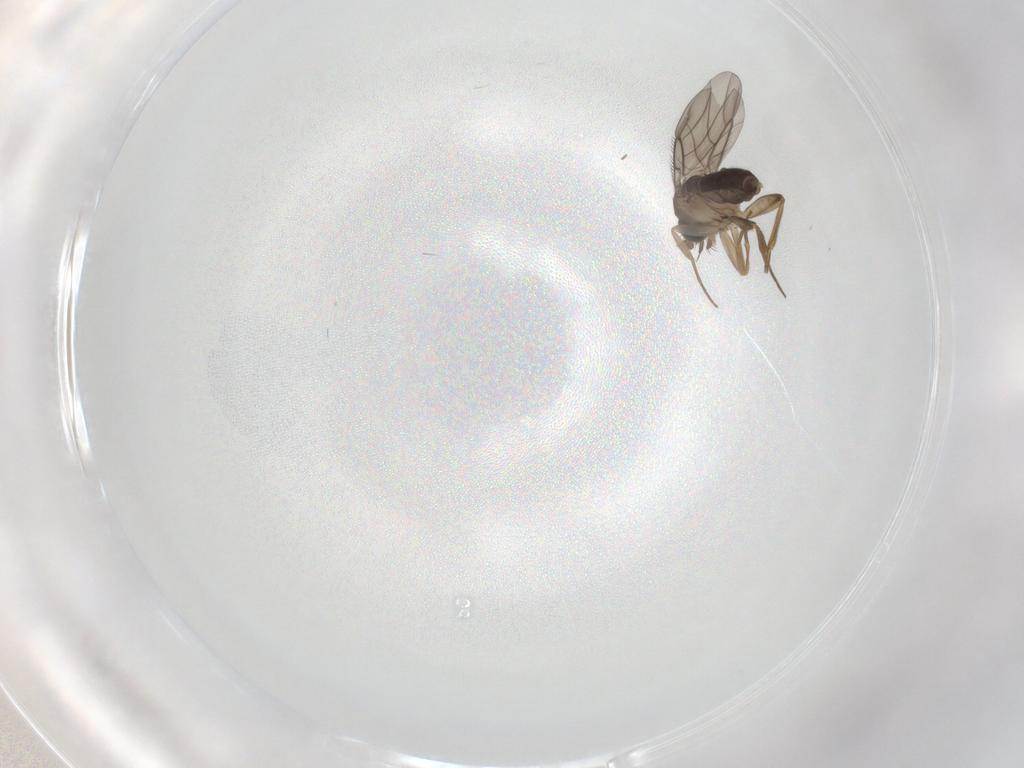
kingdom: Animalia
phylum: Arthropoda
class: Insecta
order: Diptera
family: Phoridae
